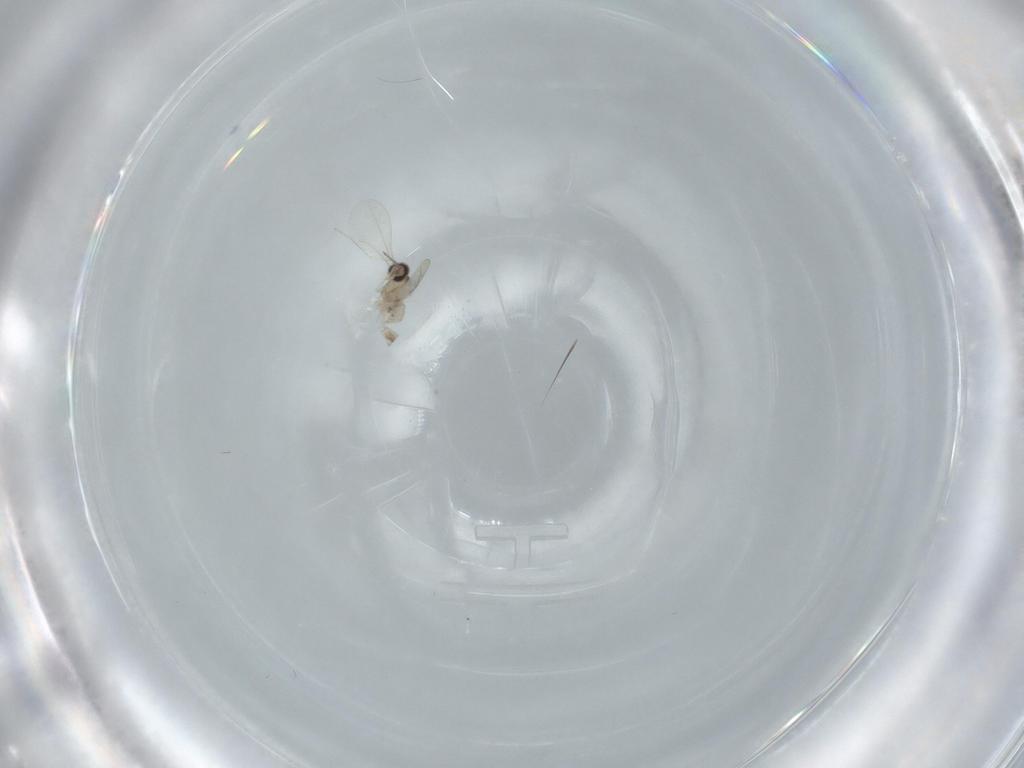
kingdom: Animalia
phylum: Arthropoda
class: Insecta
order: Diptera
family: Cecidomyiidae
